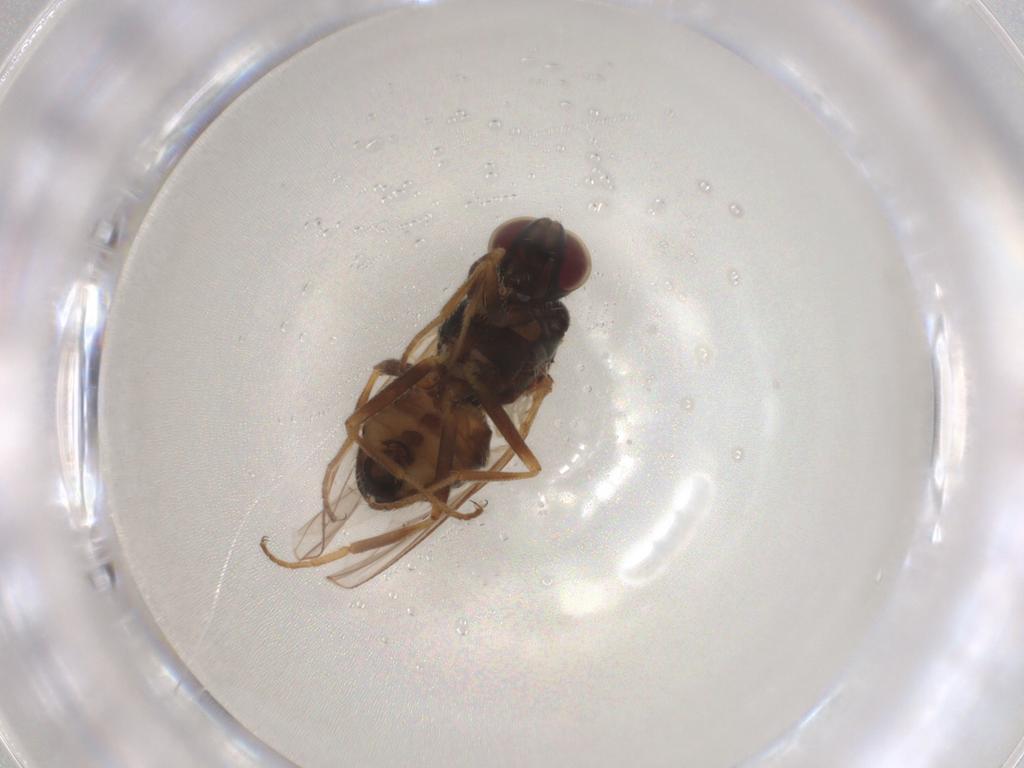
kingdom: Animalia
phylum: Arthropoda
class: Insecta
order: Diptera
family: Muscidae
